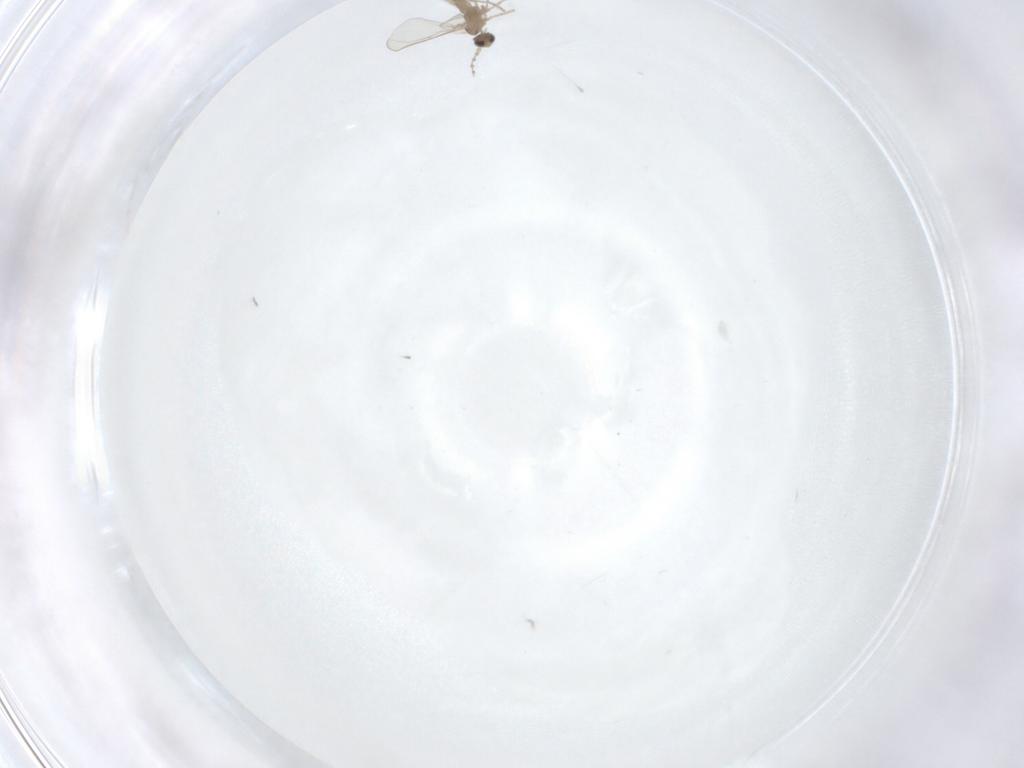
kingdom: Animalia
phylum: Arthropoda
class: Insecta
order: Diptera
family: Cecidomyiidae
